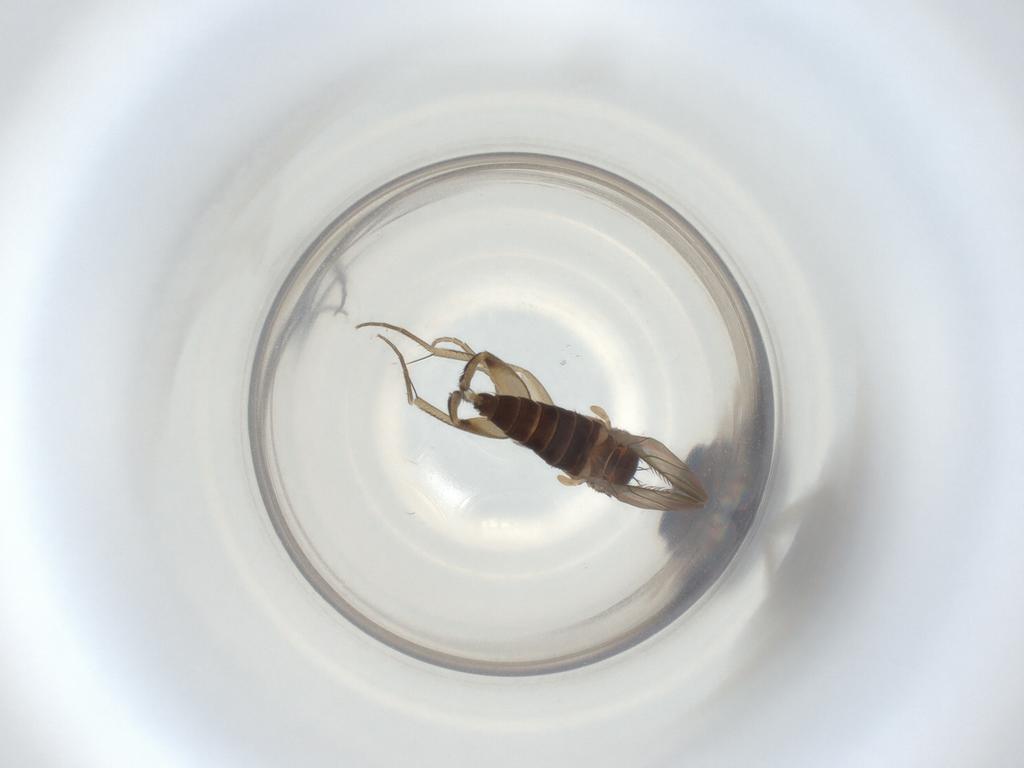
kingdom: Animalia
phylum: Arthropoda
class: Insecta
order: Diptera
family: Phoridae
